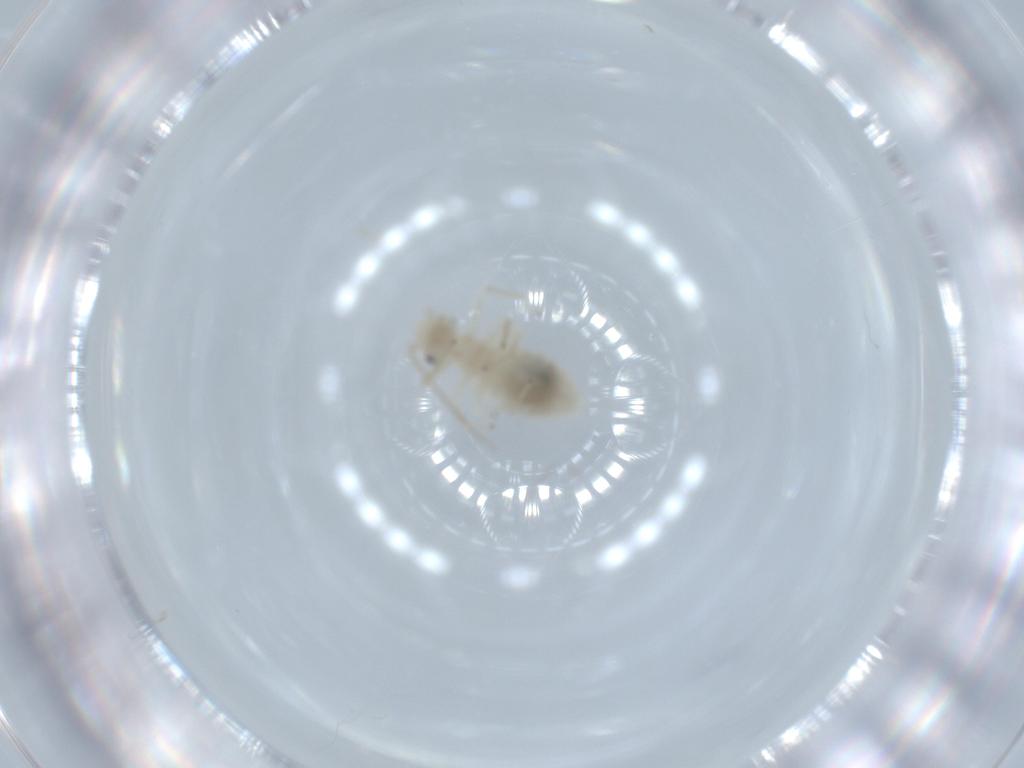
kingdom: Animalia
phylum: Arthropoda
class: Insecta
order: Psocodea
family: Caeciliusidae
